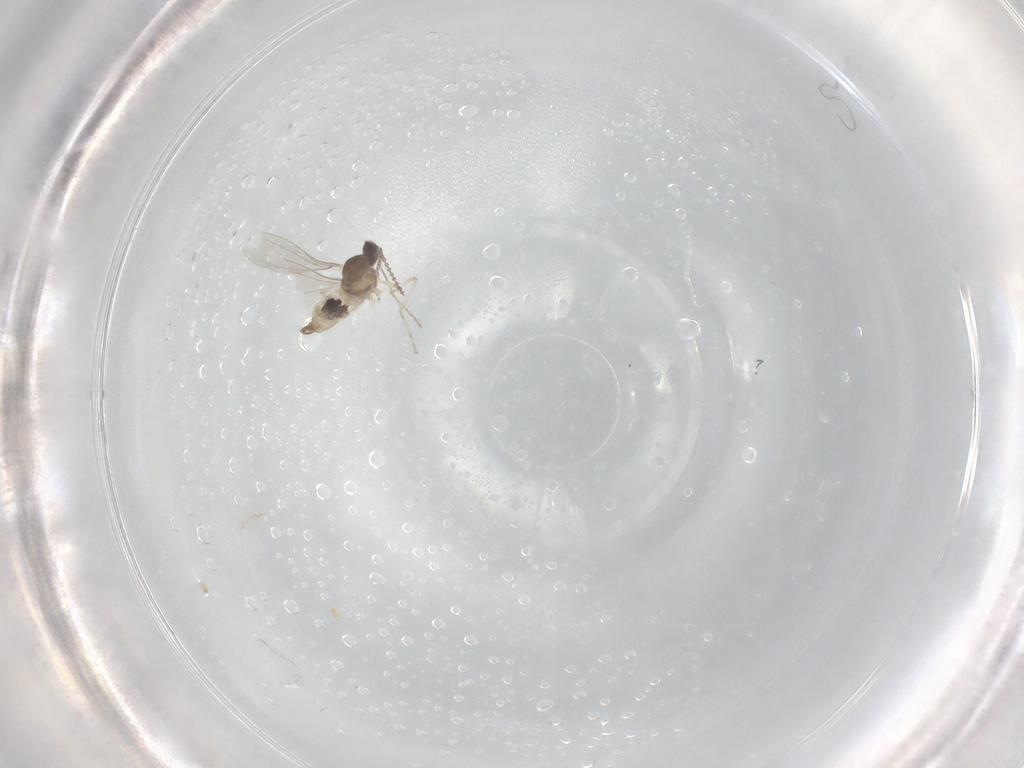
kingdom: Animalia
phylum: Arthropoda
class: Insecta
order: Diptera
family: Cecidomyiidae
